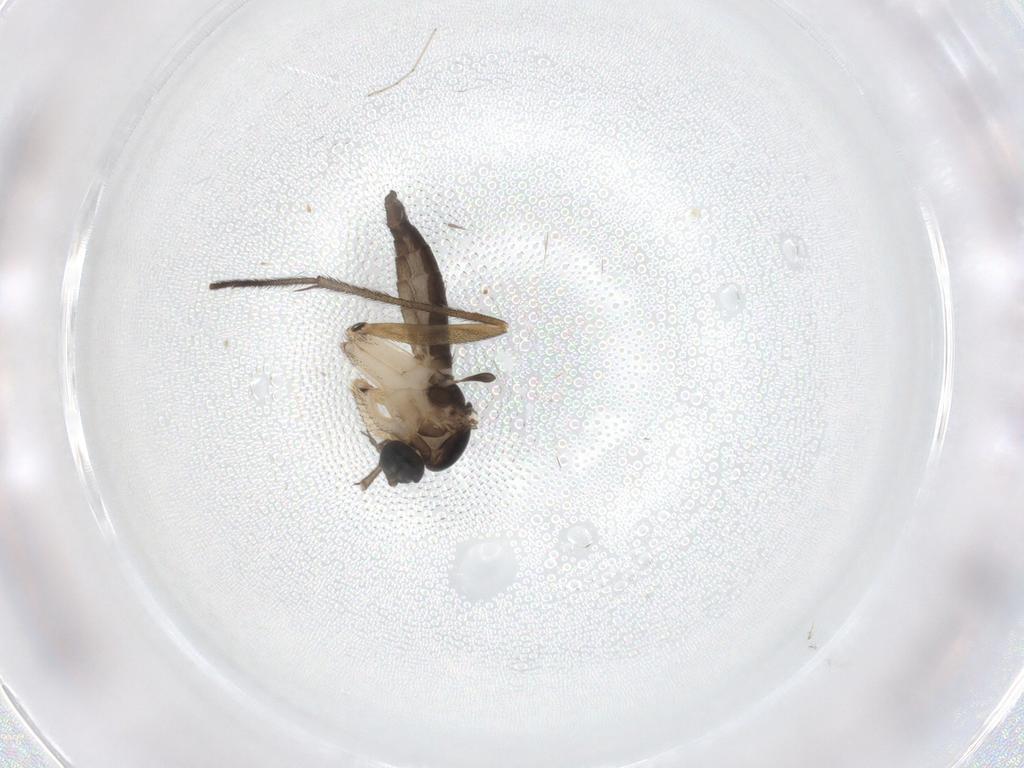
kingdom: Animalia
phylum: Arthropoda
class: Insecta
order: Diptera
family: Sciaridae
